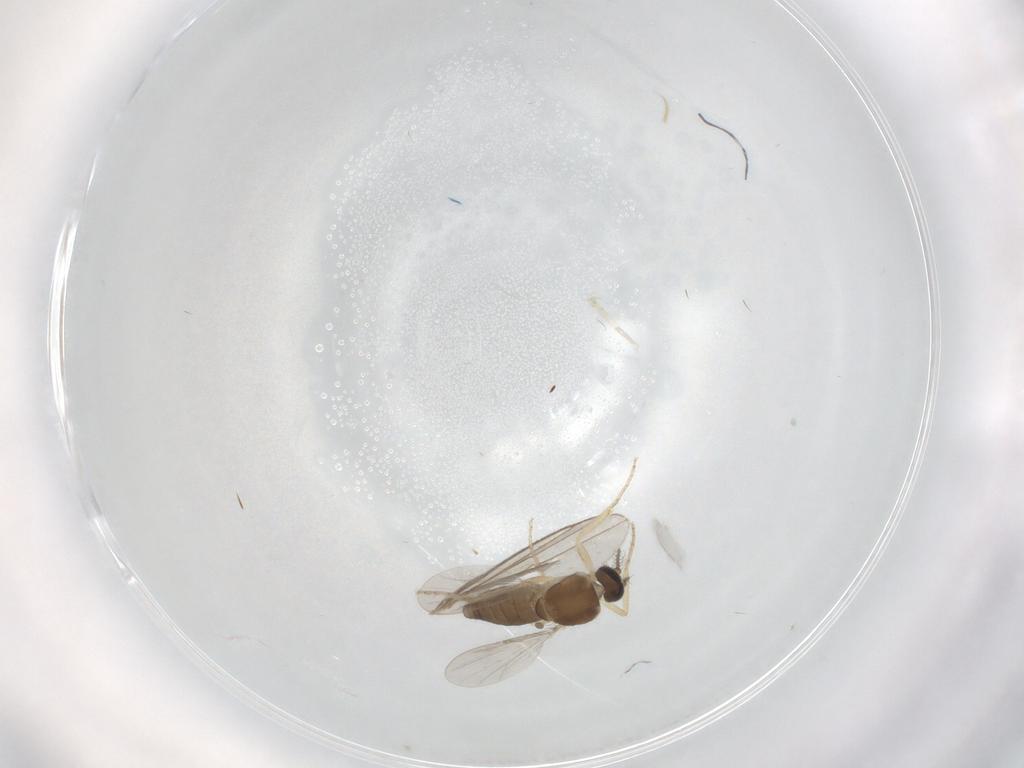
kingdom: Animalia
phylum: Arthropoda
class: Insecta
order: Diptera
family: Ceratopogonidae
